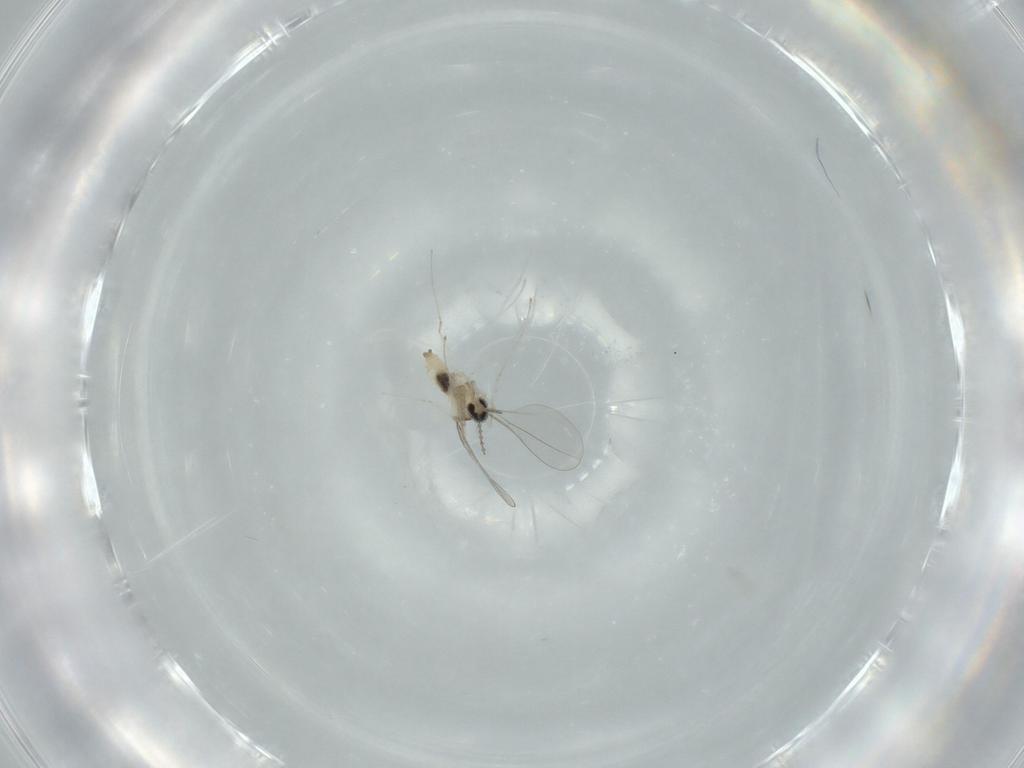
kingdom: Animalia
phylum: Arthropoda
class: Insecta
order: Diptera
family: Cecidomyiidae
